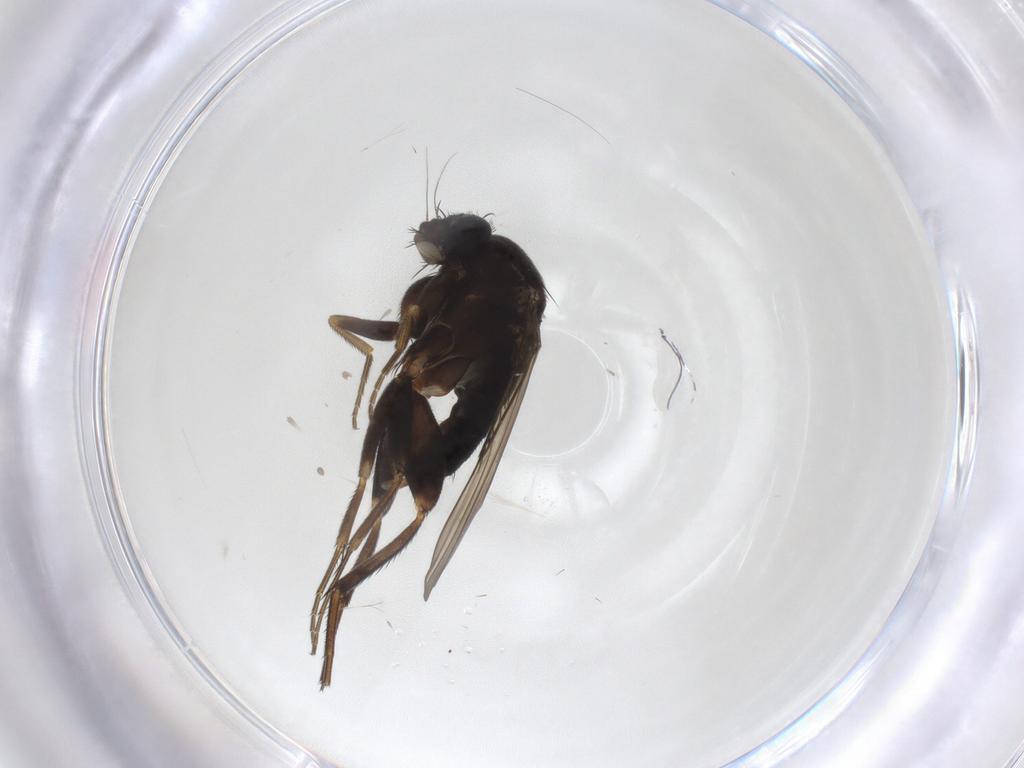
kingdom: Animalia
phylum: Arthropoda
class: Insecta
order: Diptera
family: Phoridae
